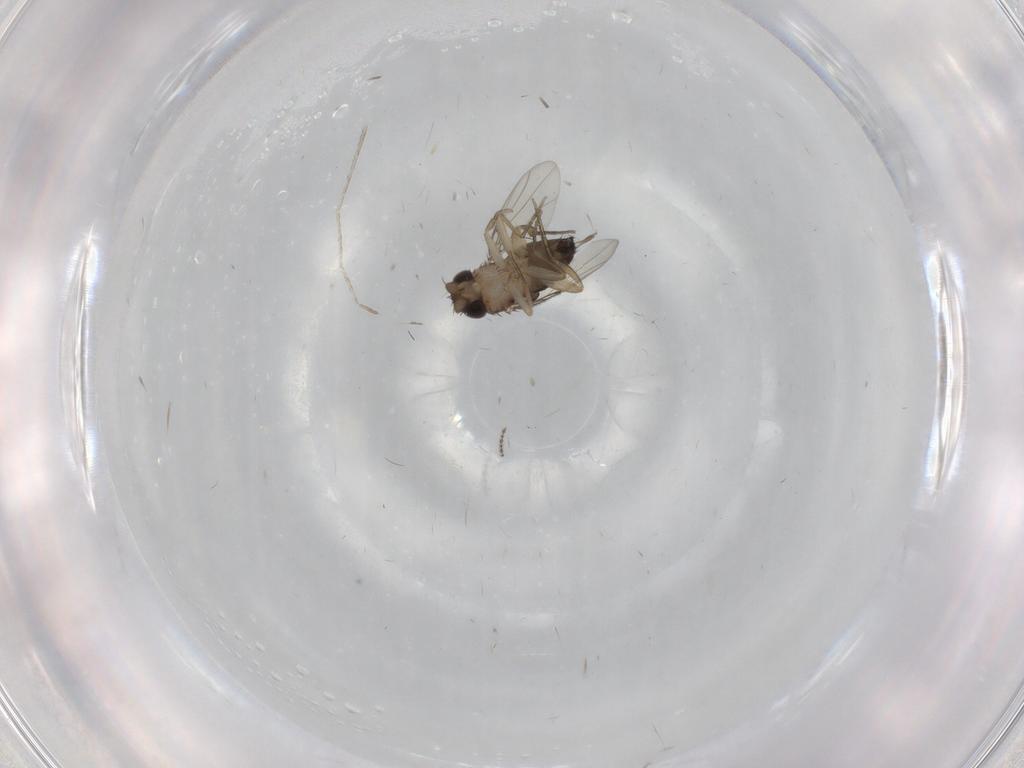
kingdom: Animalia
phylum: Arthropoda
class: Insecta
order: Diptera
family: Cecidomyiidae
